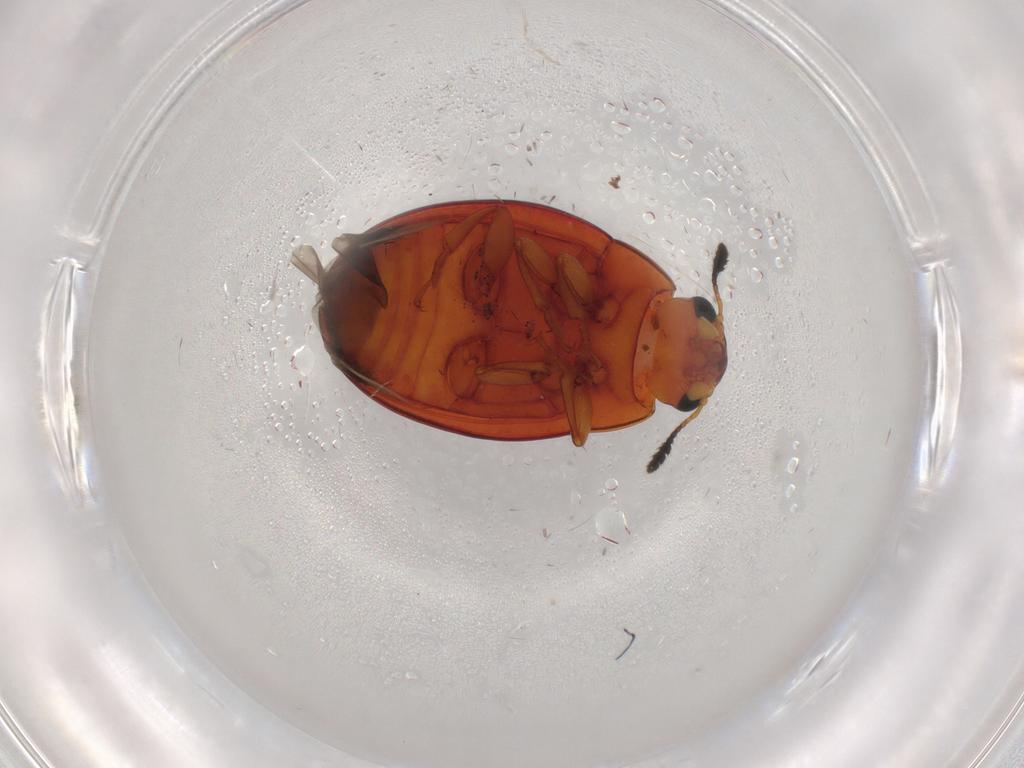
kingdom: Animalia
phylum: Arthropoda
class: Insecta
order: Coleoptera
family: Erotylidae
